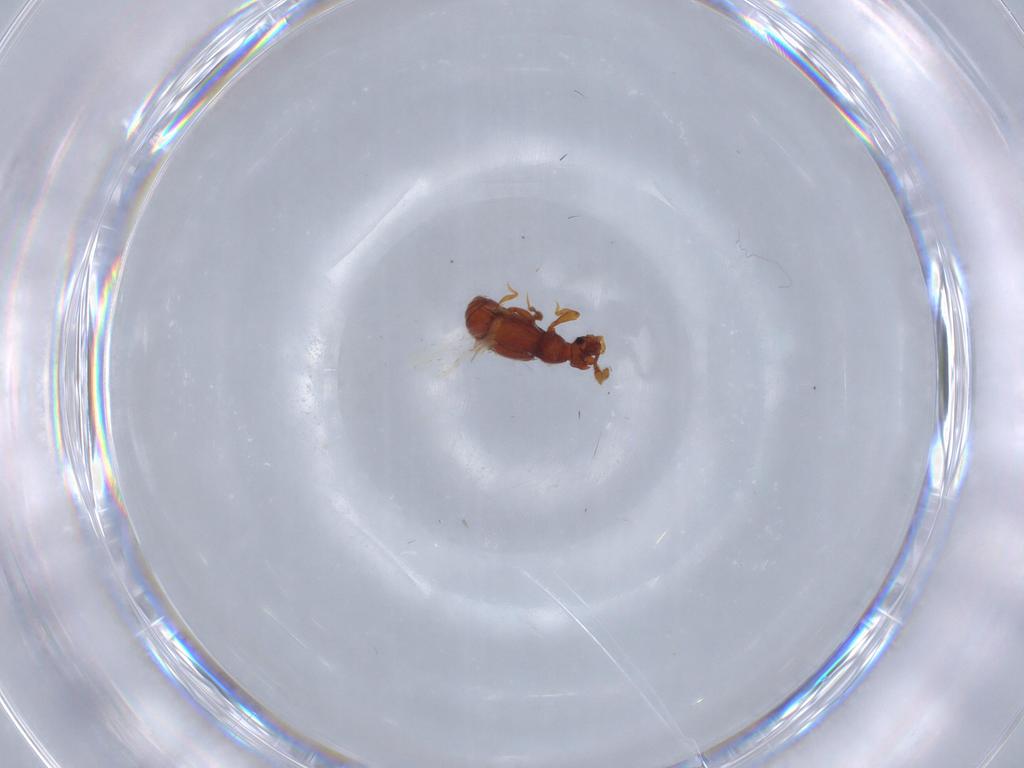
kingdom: Animalia
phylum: Arthropoda
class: Insecta
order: Coleoptera
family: Staphylinidae
